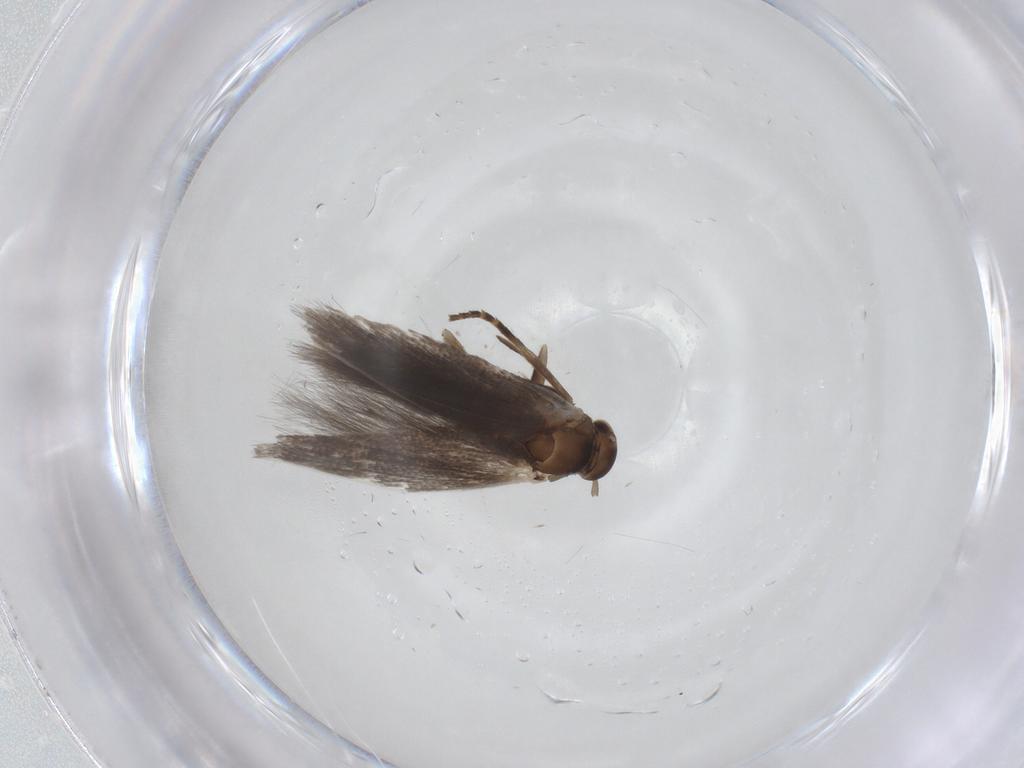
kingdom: Animalia
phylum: Arthropoda
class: Insecta
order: Lepidoptera
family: Elachistidae
